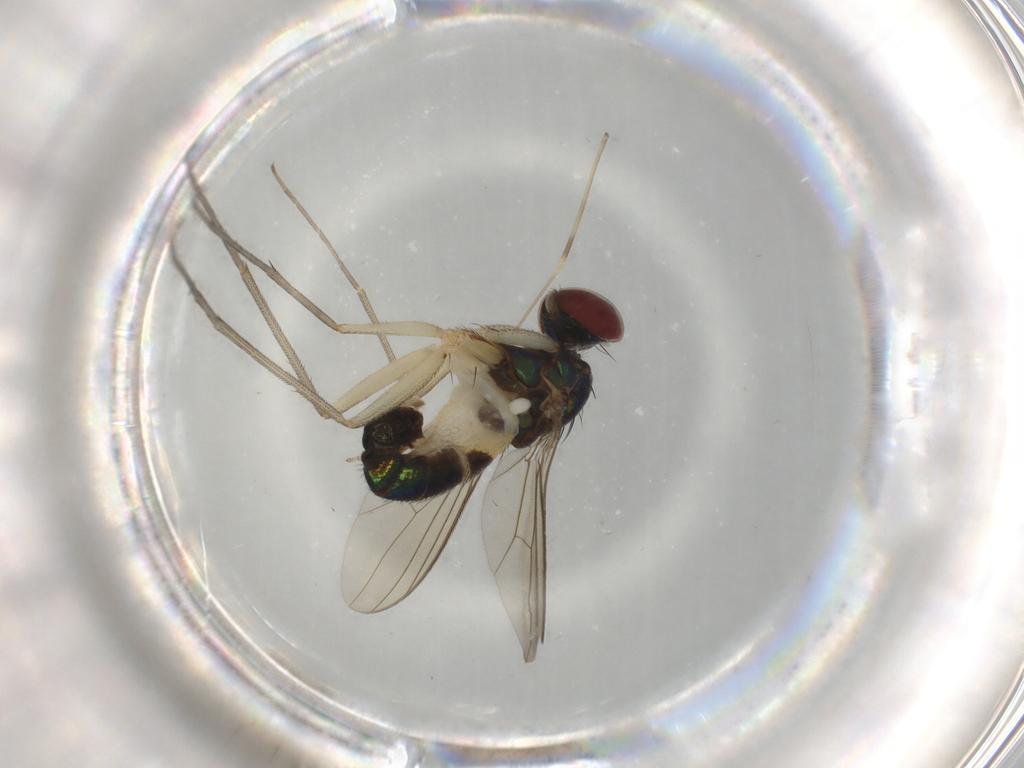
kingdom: Animalia
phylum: Arthropoda
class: Insecta
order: Diptera
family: Dolichopodidae
